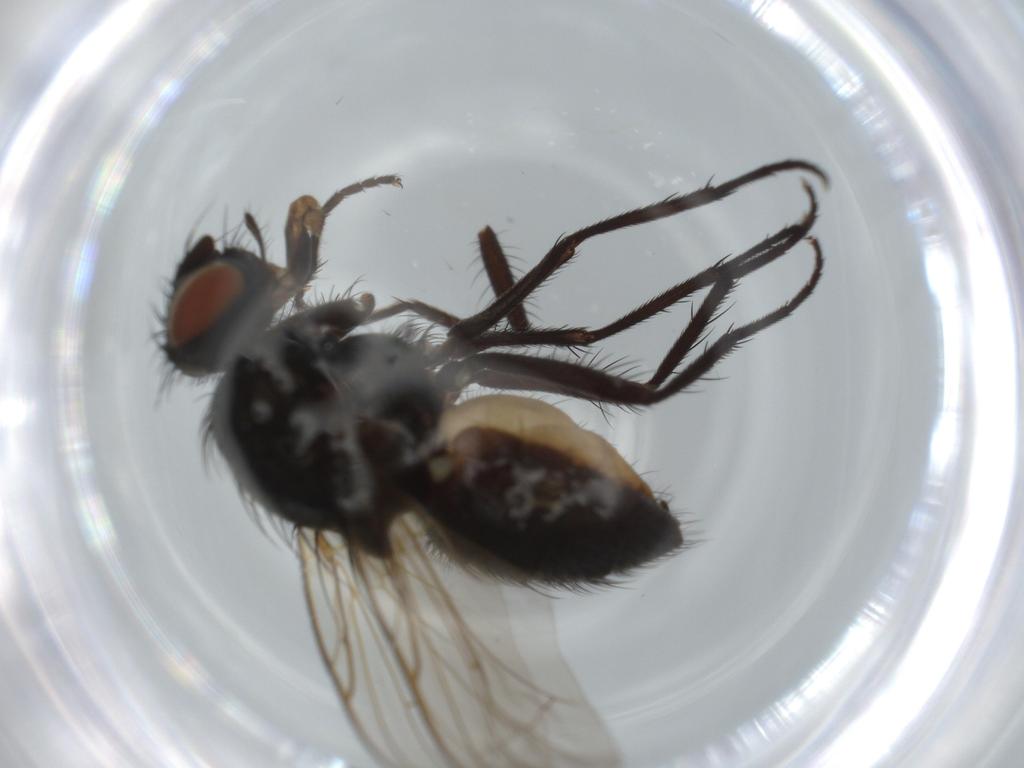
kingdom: Animalia
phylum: Arthropoda
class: Insecta
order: Diptera
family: Anthomyiidae
